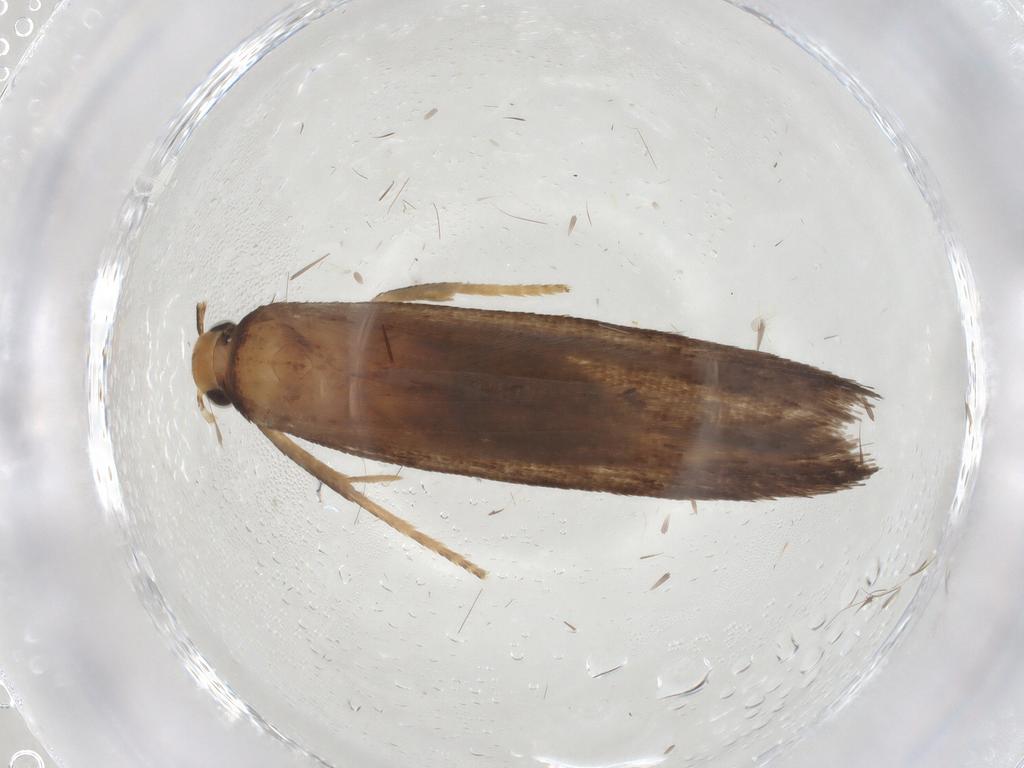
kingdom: Animalia
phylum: Arthropoda
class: Insecta
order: Lepidoptera
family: Gelechiidae
